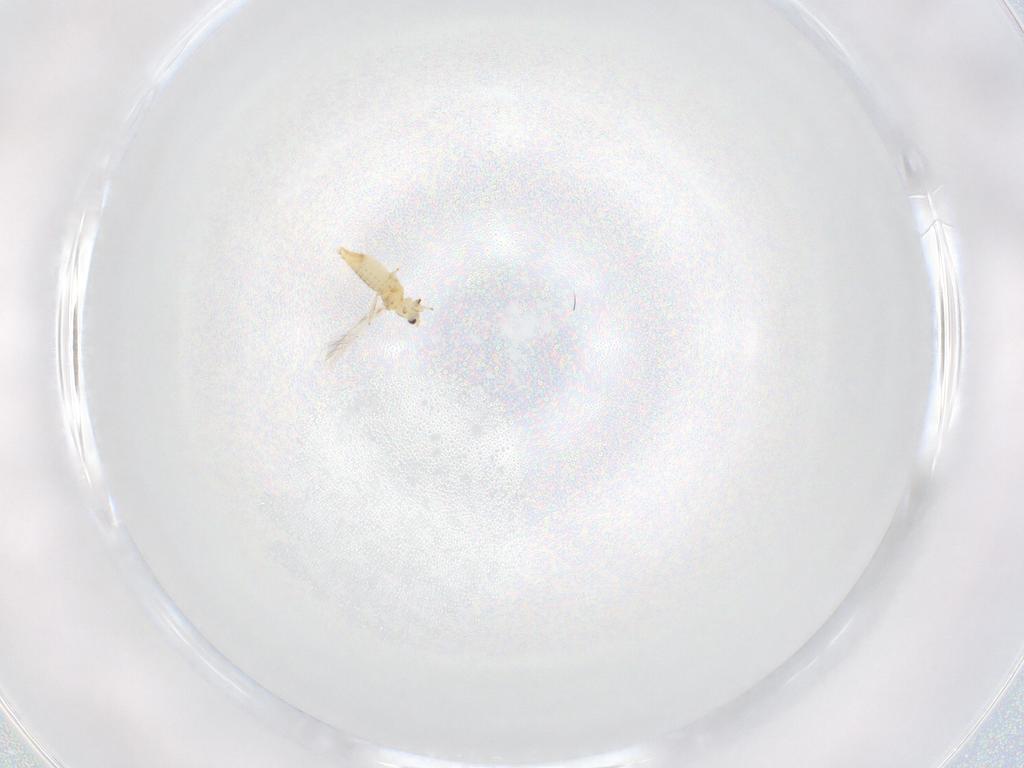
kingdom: Animalia
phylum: Arthropoda
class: Insecta
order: Thysanoptera
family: Thripidae
